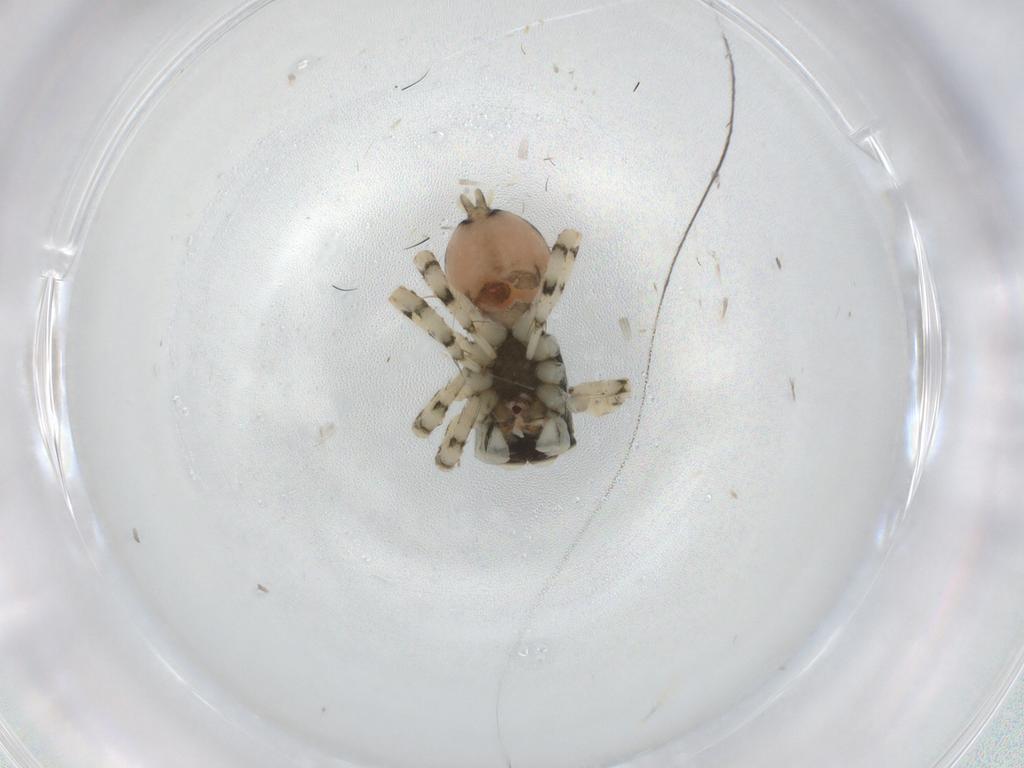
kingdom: Animalia
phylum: Arthropoda
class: Arachnida
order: Araneae
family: Salticidae
